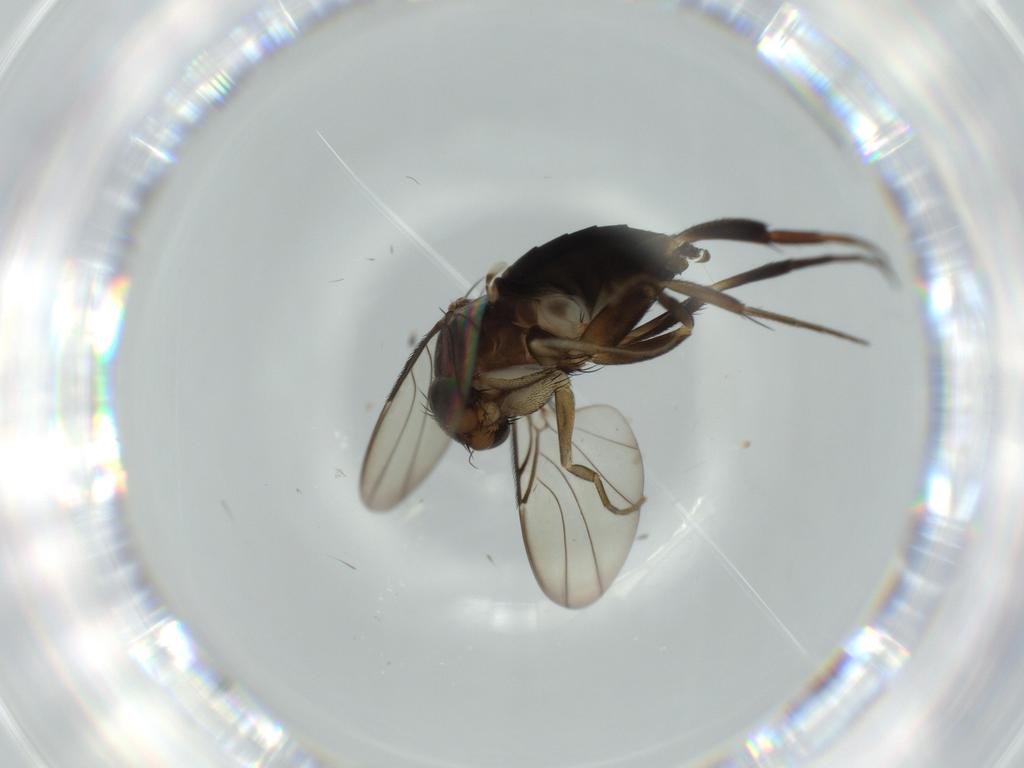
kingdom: Animalia
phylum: Arthropoda
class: Insecta
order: Diptera
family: Phoridae
